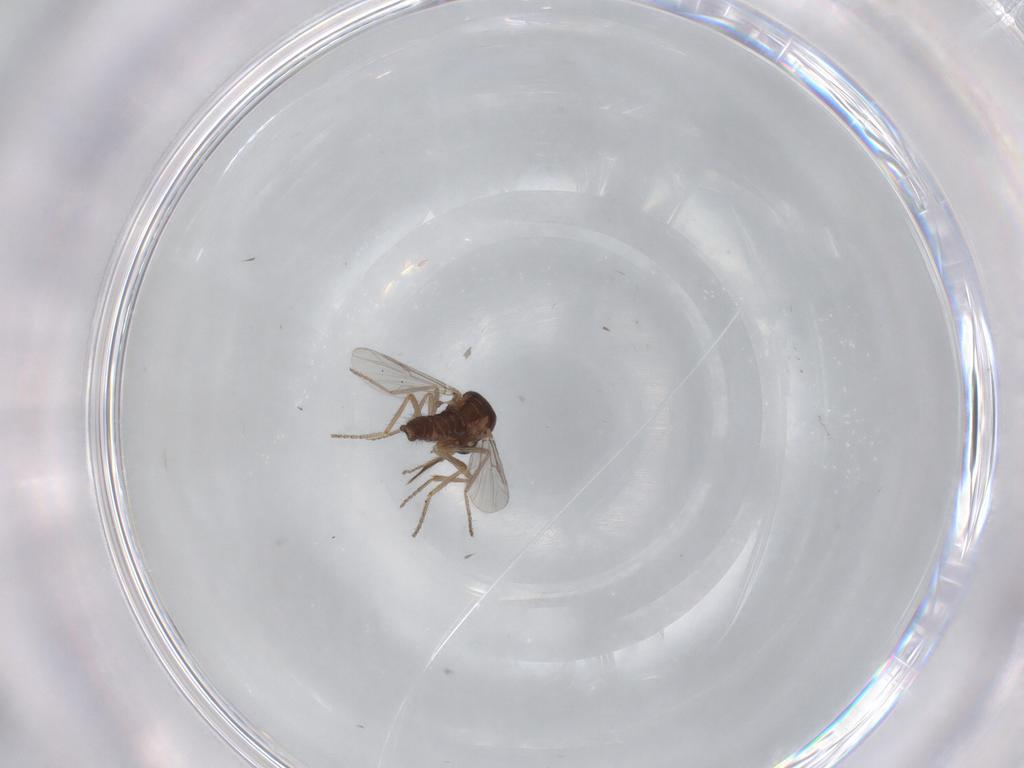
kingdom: Animalia
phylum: Arthropoda
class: Insecta
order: Diptera
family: Ceratopogonidae
